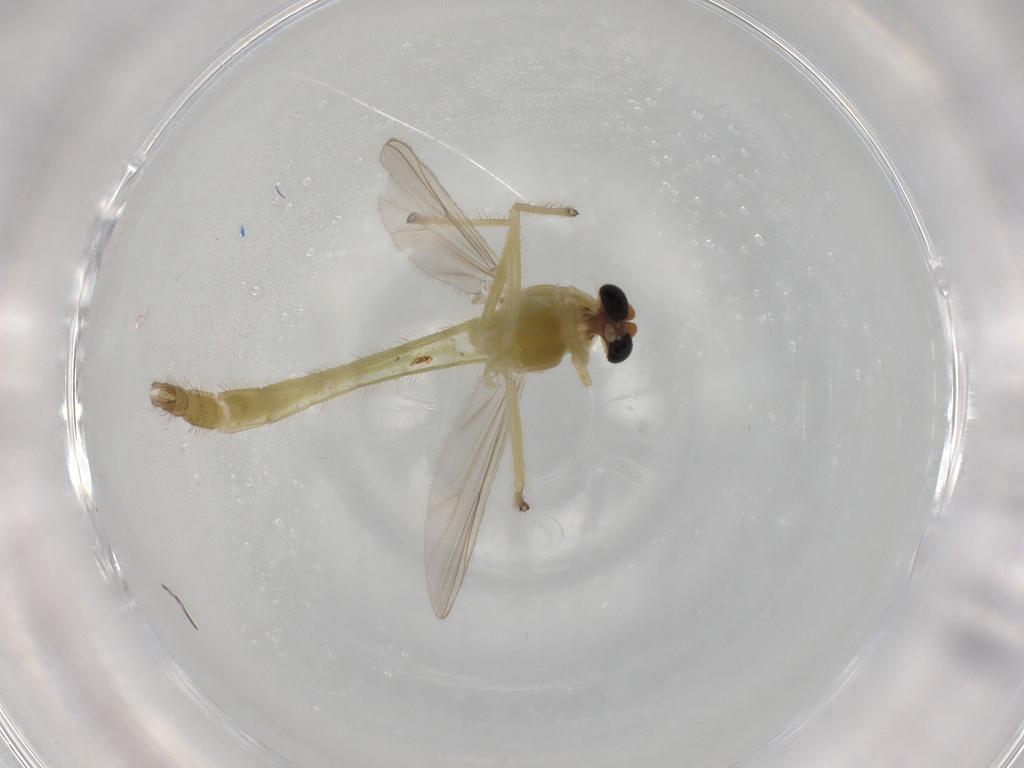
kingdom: Animalia
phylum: Arthropoda
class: Insecta
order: Diptera
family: Chironomidae
